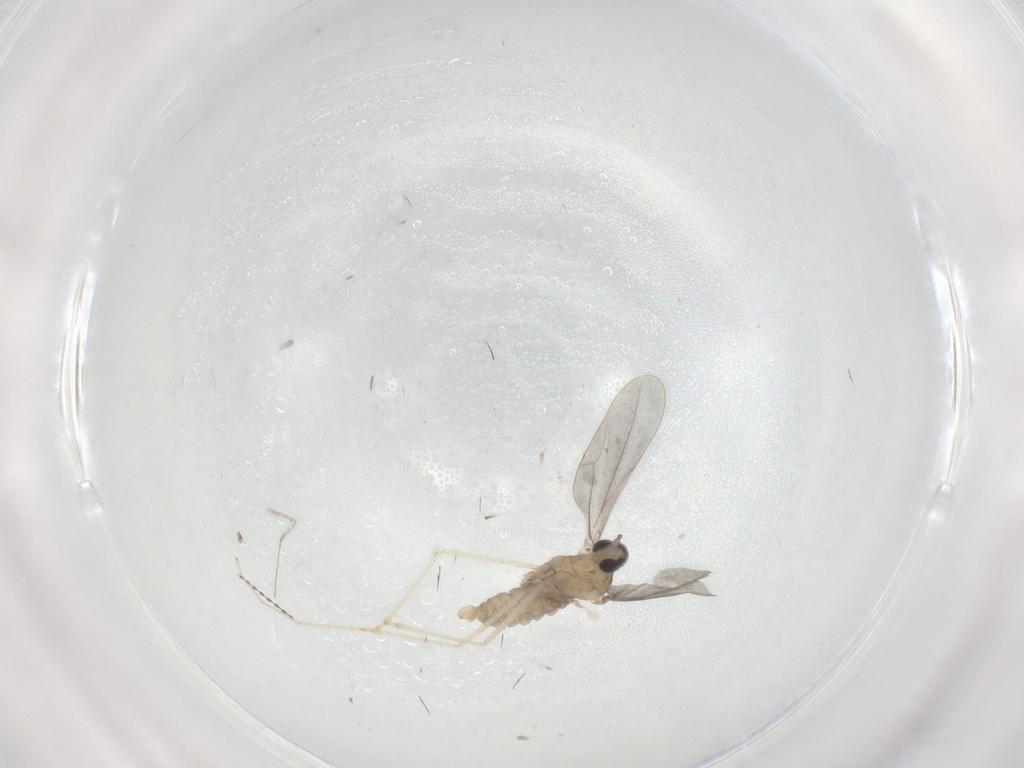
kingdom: Animalia
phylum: Arthropoda
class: Insecta
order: Diptera
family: Cecidomyiidae
